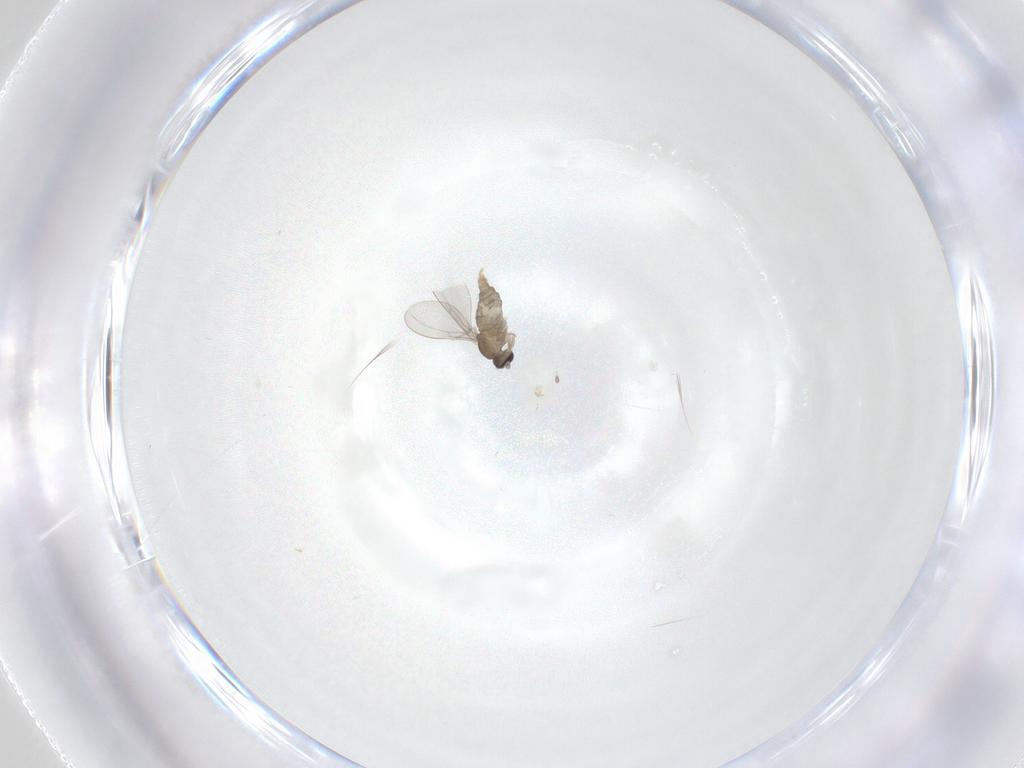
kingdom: Animalia
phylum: Arthropoda
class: Insecta
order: Diptera
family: Cecidomyiidae
